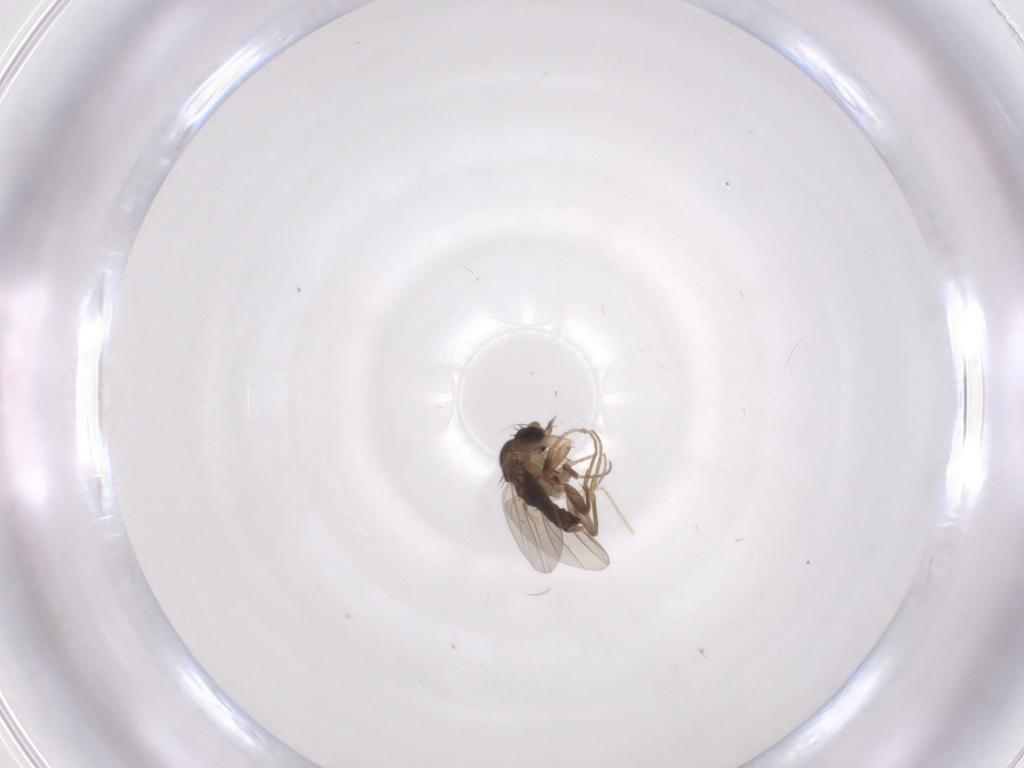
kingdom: Animalia
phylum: Arthropoda
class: Insecta
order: Diptera
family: Phoridae
